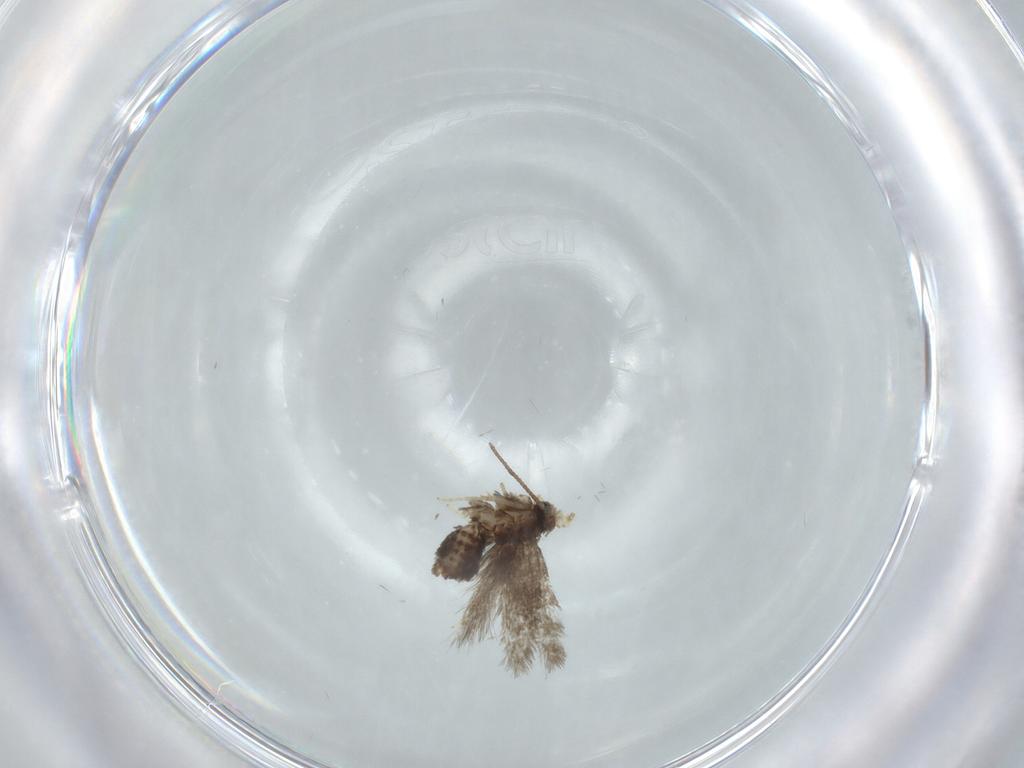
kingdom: Animalia
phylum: Arthropoda
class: Insecta
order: Lepidoptera
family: Nepticulidae
